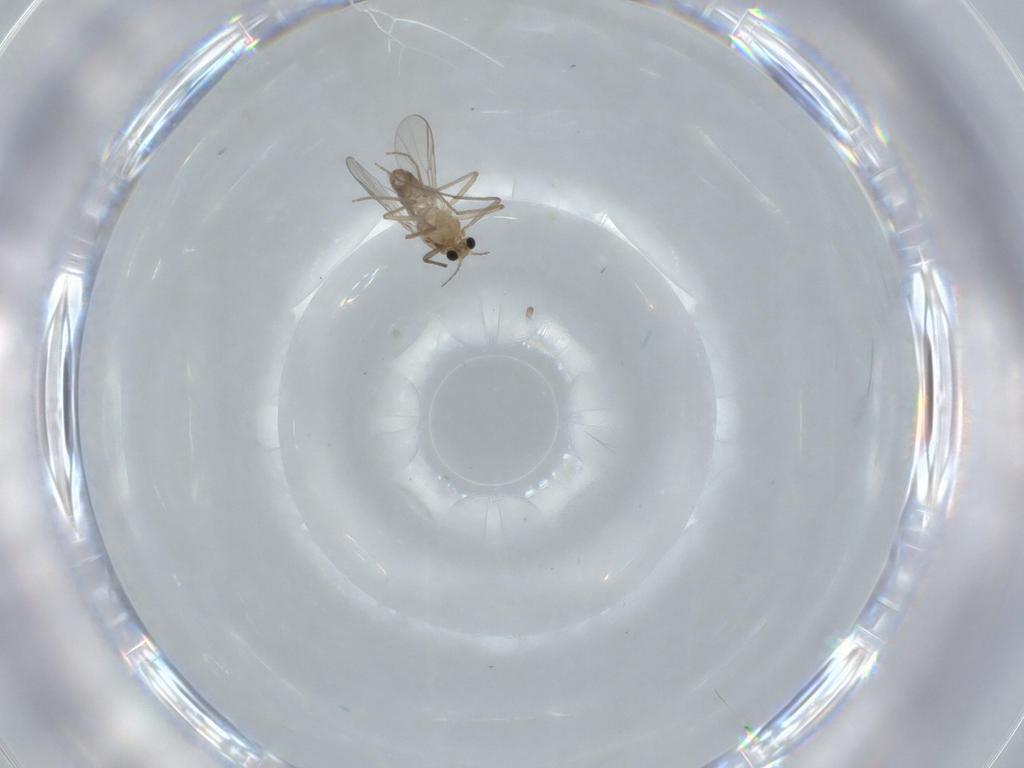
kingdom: Animalia
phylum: Arthropoda
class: Insecta
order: Diptera
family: Chironomidae
